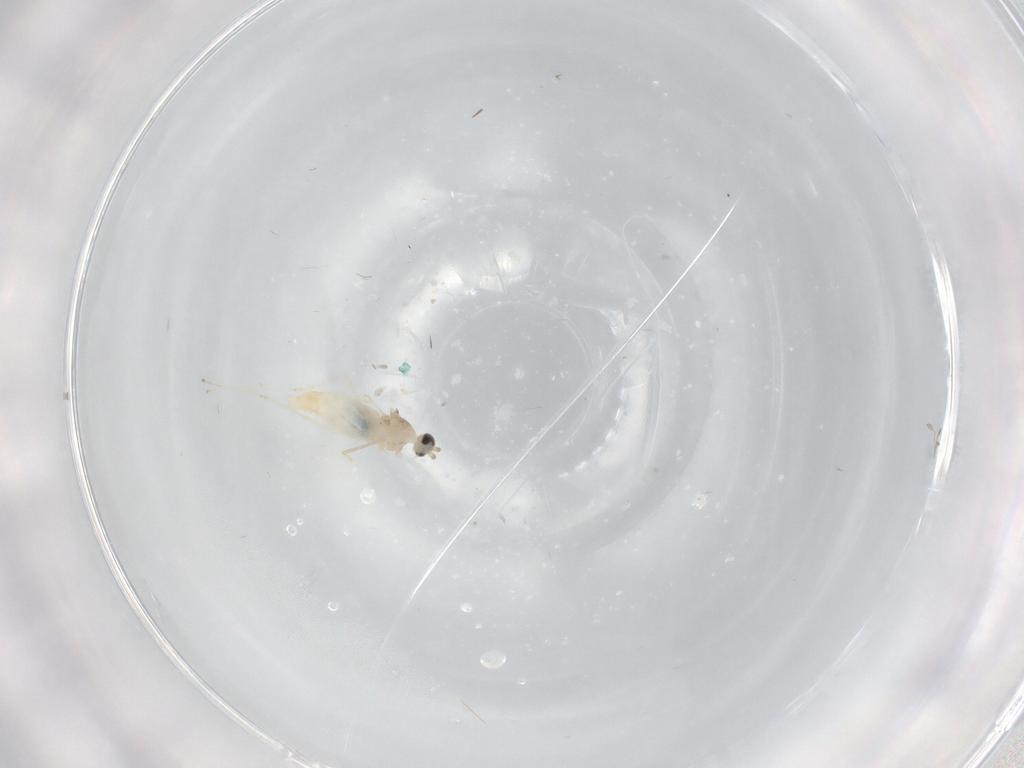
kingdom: Animalia
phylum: Arthropoda
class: Insecta
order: Diptera
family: Cecidomyiidae
